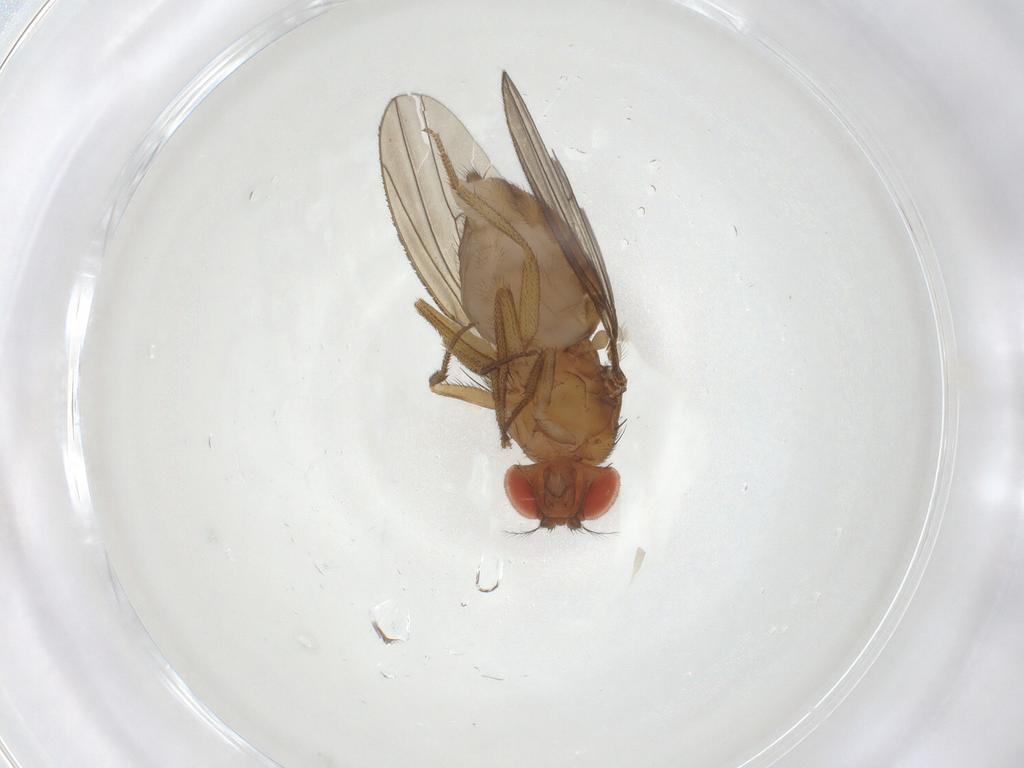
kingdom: Animalia
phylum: Arthropoda
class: Insecta
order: Diptera
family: Drosophilidae
